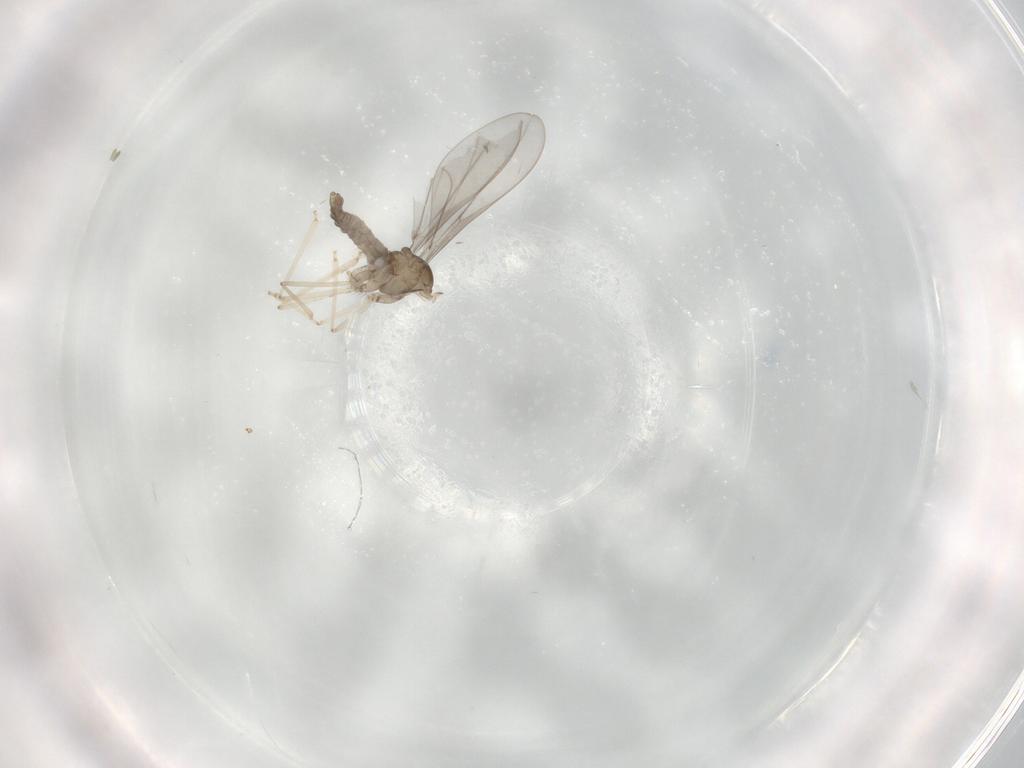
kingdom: Animalia
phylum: Arthropoda
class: Insecta
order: Diptera
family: Cecidomyiidae
